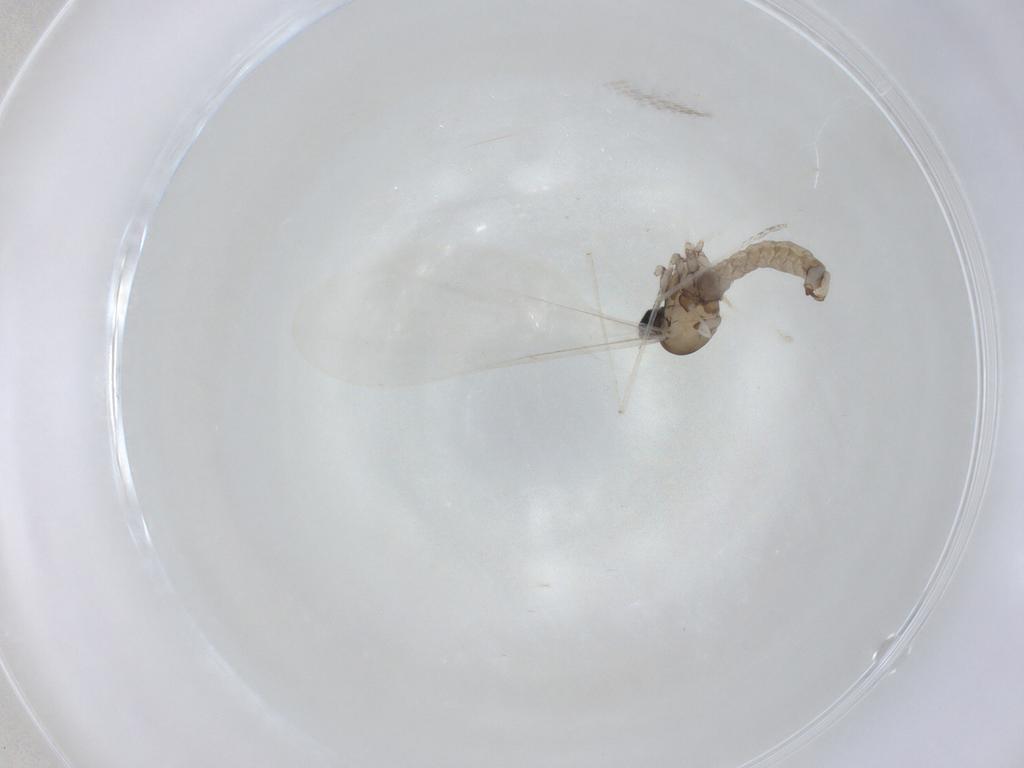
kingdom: Animalia
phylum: Arthropoda
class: Insecta
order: Diptera
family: Cecidomyiidae
